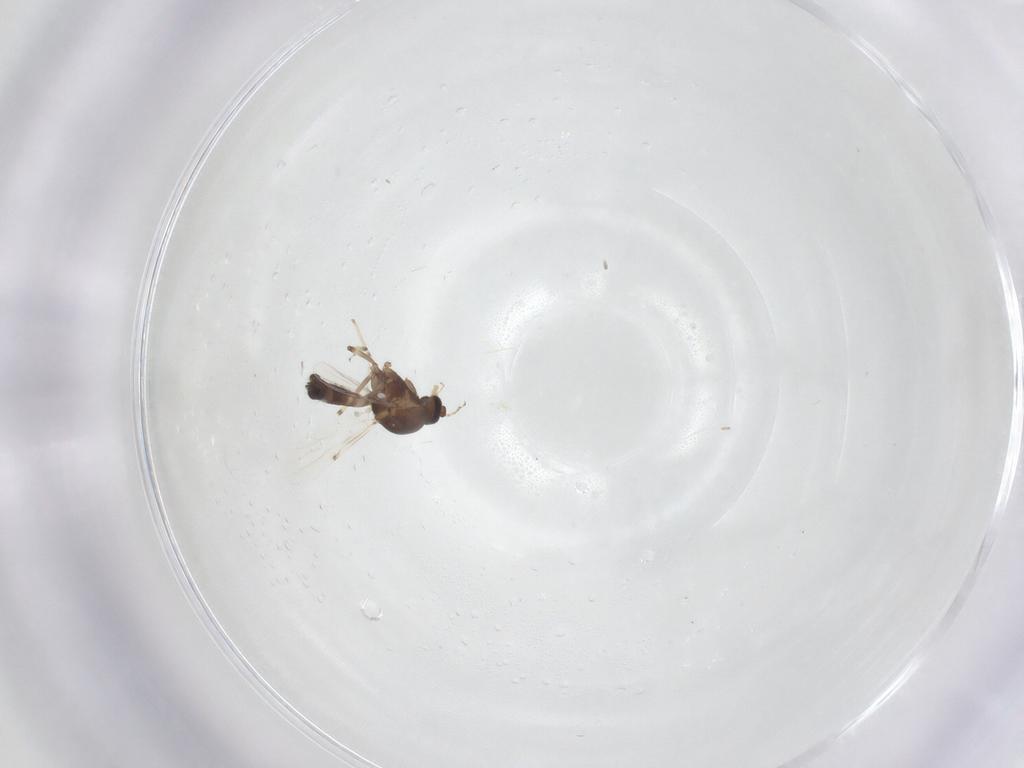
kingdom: Animalia
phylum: Arthropoda
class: Insecta
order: Diptera
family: Ceratopogonidae
